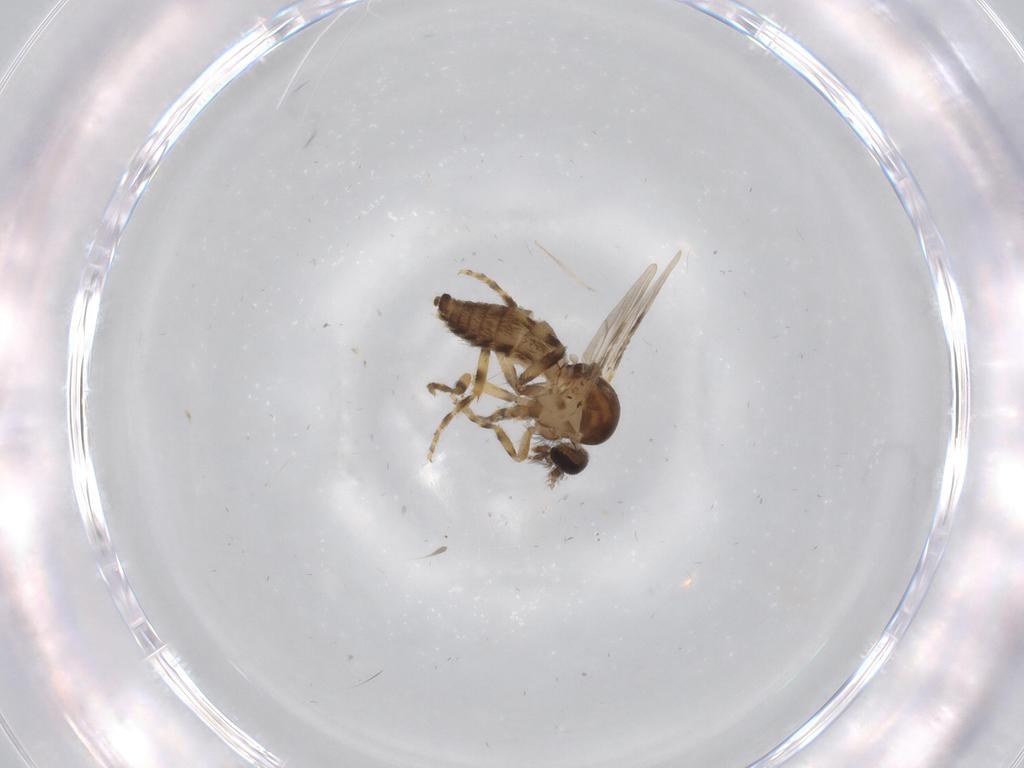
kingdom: Animalia
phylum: Arthropoda
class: Insecta
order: Diptera
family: Ceratopogonidae
